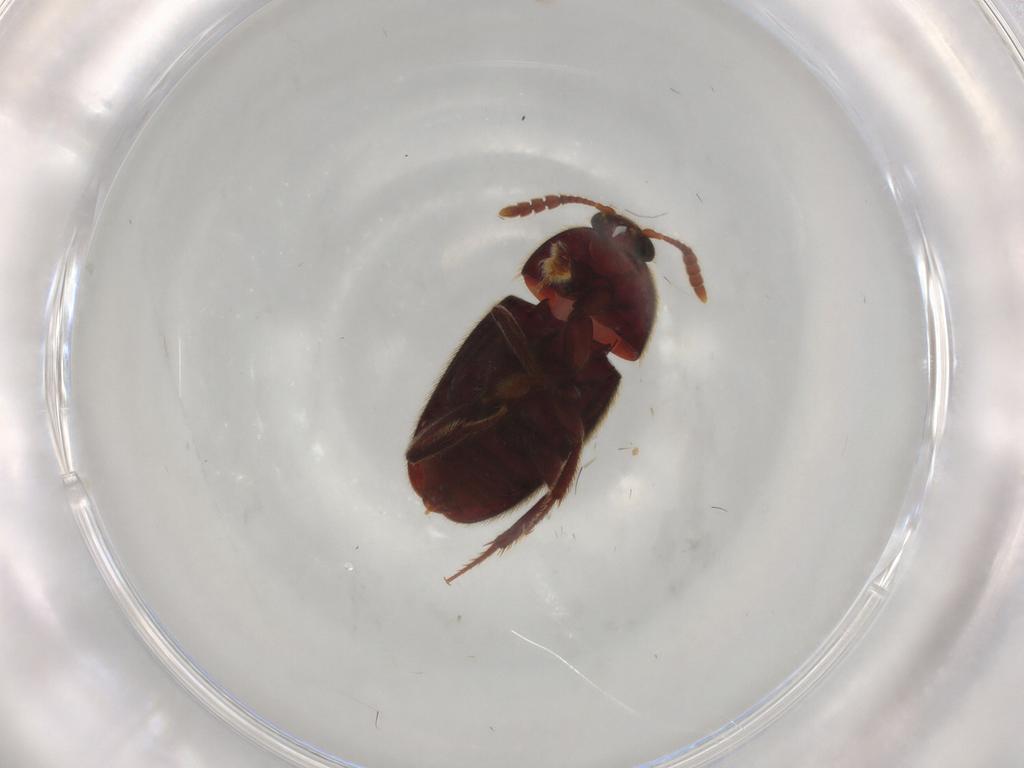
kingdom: Animalia
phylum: Arthropoda
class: Insecta
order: Coleoptera
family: Leiodidae
